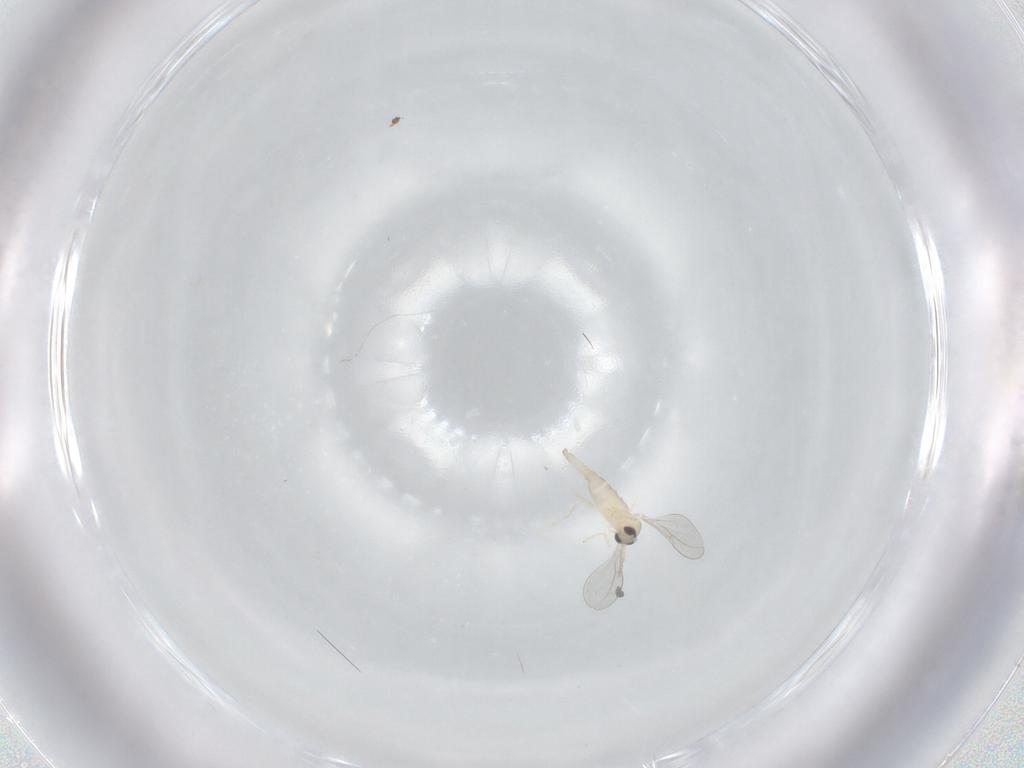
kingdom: Animalia
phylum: Arthropoda
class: Insecta
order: Diptera
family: Cecidomyiidae
